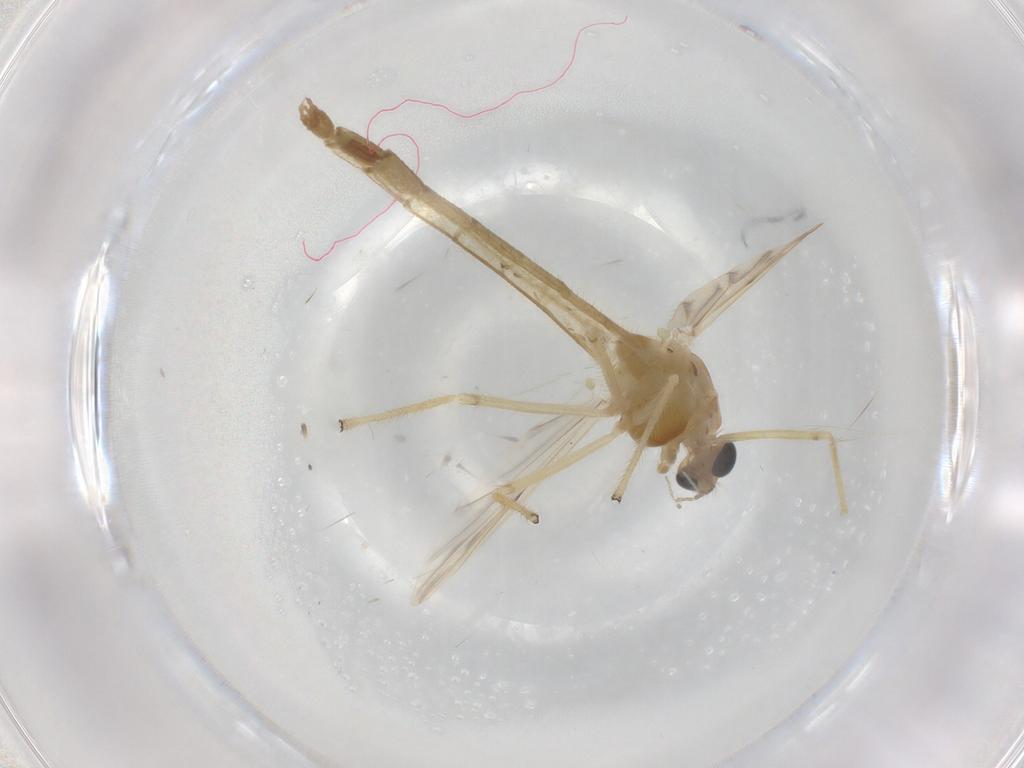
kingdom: Animalia
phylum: Arthropoda
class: Insecta
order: Diptera
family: Chironomidae
